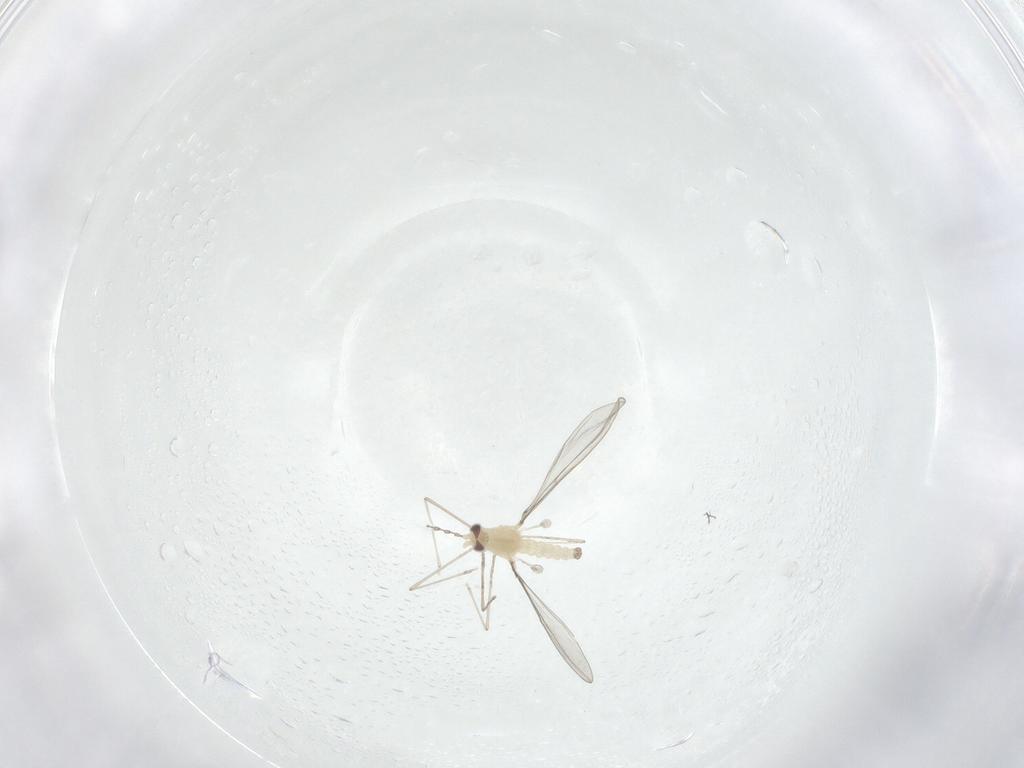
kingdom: Animalia
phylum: Arthropoda
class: Insecta
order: Diptera
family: Cecidomyiidae
